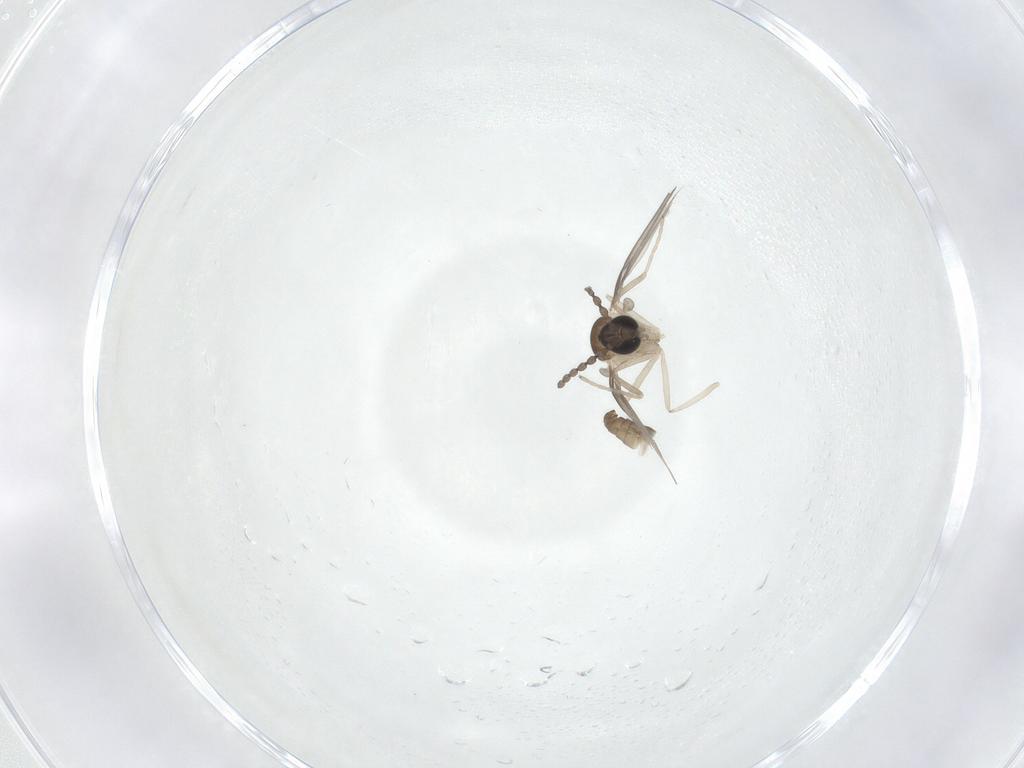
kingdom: Animalia
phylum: Arthropoda
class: Insecta
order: Diptera
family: Cecidomyiidae
